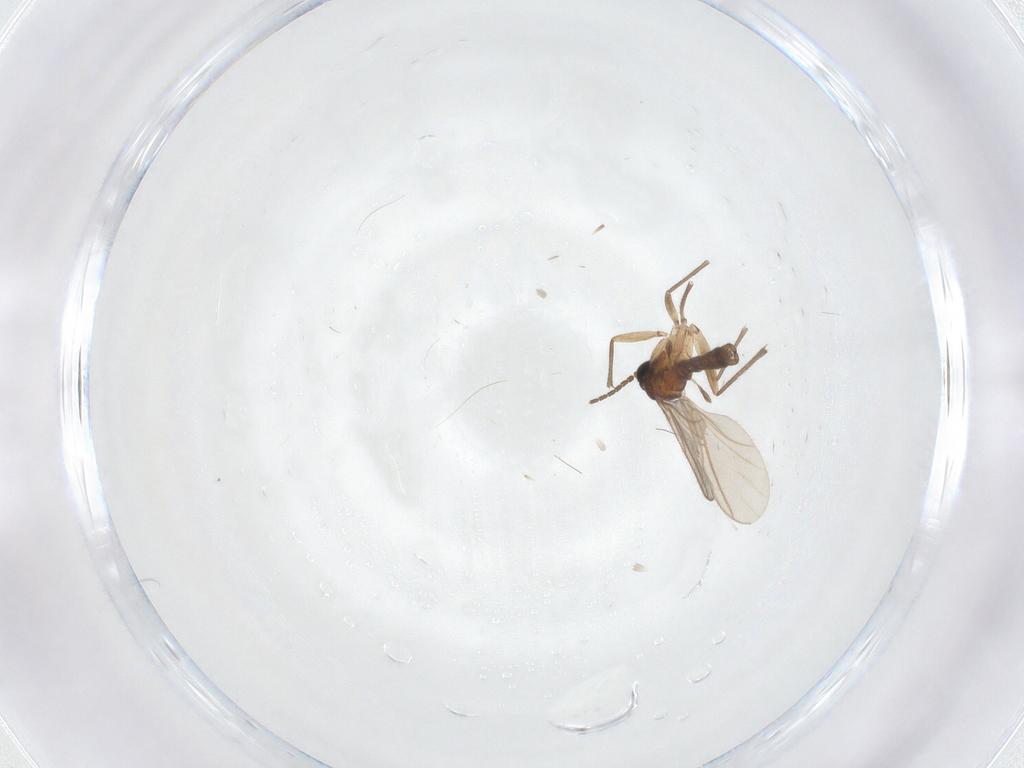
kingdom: Animalia
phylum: Arthropoda
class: Insecta
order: Diptera
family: Sciaridae
